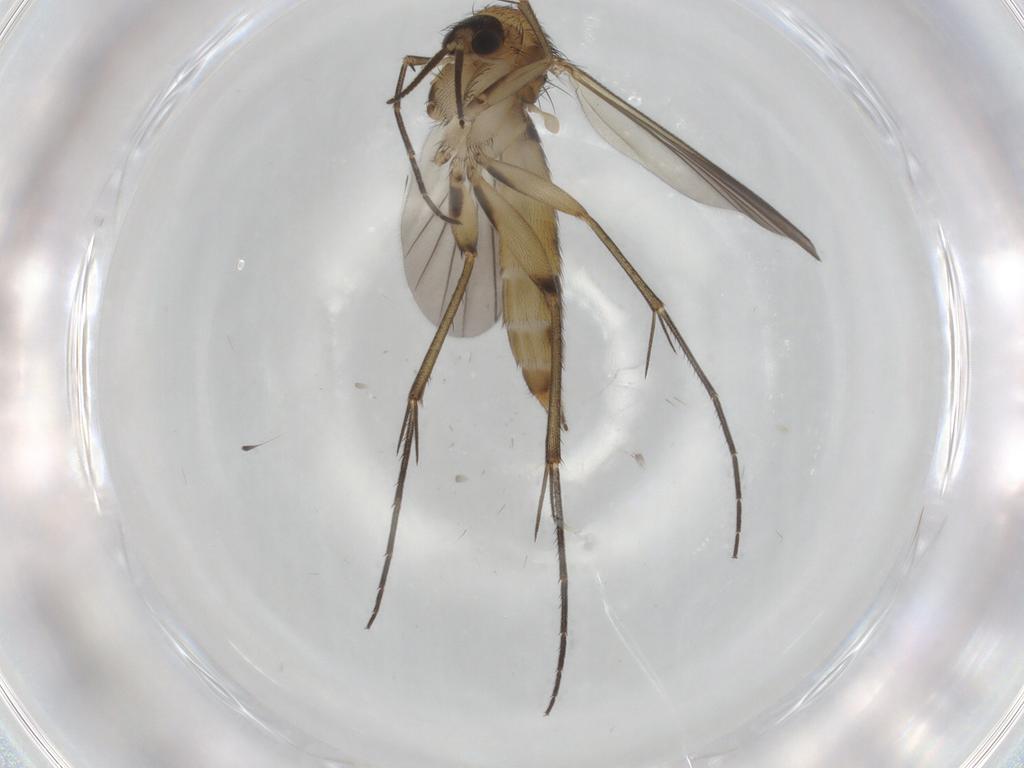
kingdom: Animalia
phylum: Arthropoda
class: Insecta
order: Diptera
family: Mycetophilidae
